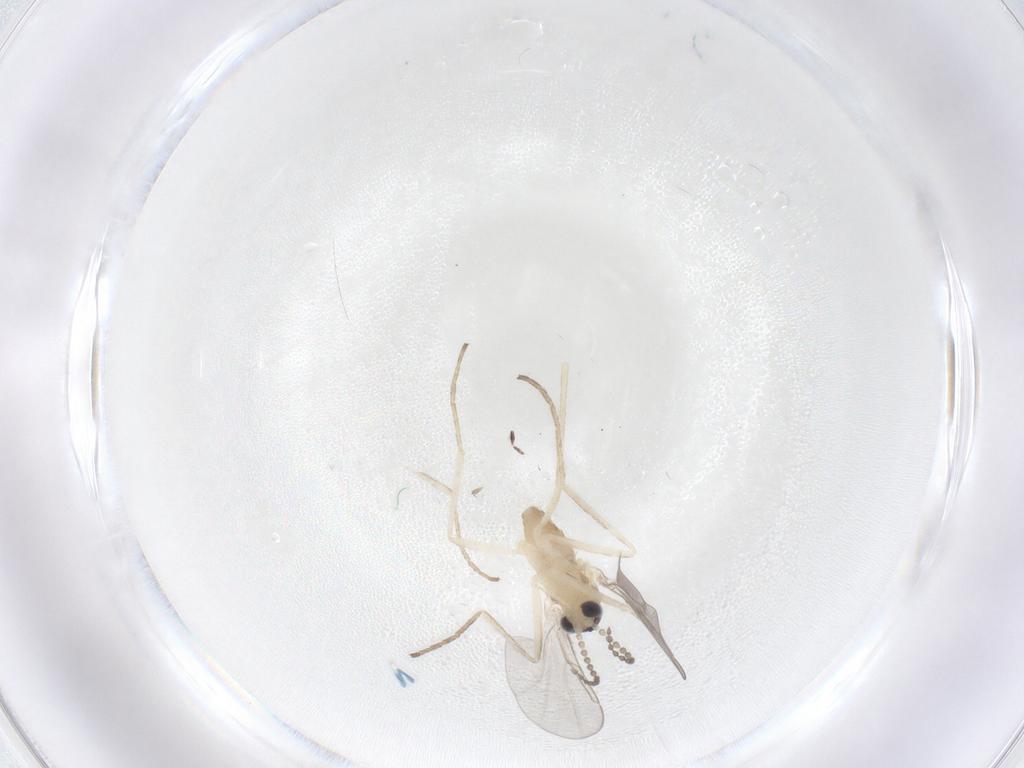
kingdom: Animalia
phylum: Arthropoda
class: Insecta
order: Diptera
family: Cecidomyiidae
